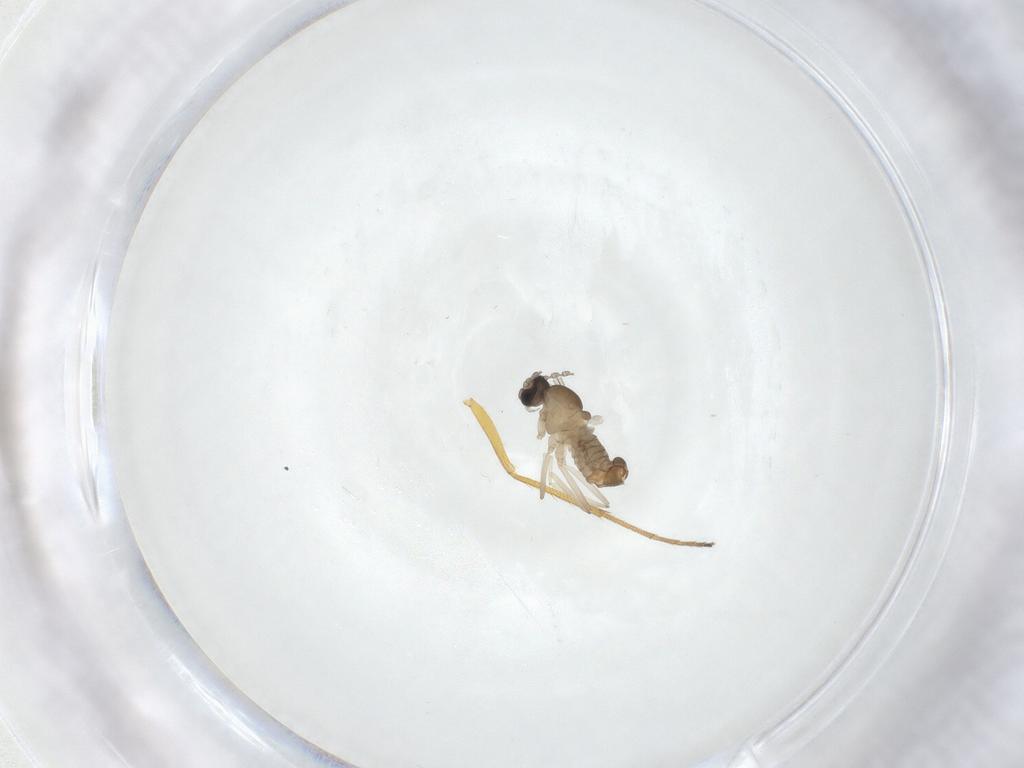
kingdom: Animalia
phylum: Arthropoda
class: Insecta
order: Diptera
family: Cecidomyiidae
